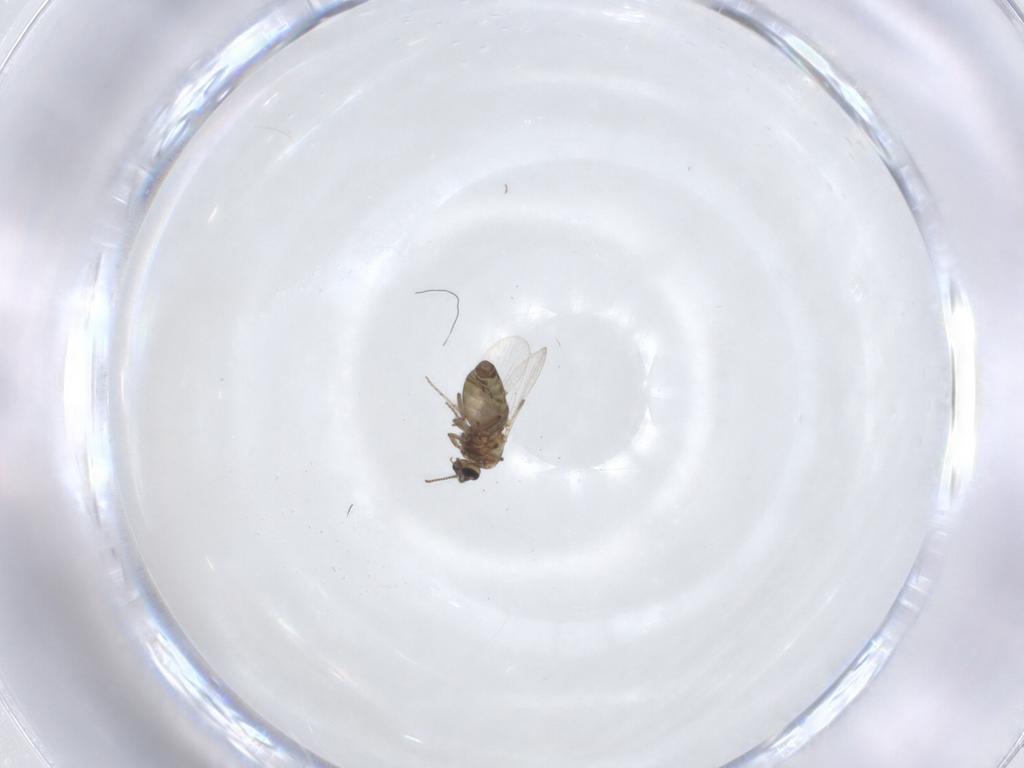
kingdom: Animalia
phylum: Arthropoda
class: Insecta
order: Diptera
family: Ceratopogonidae
